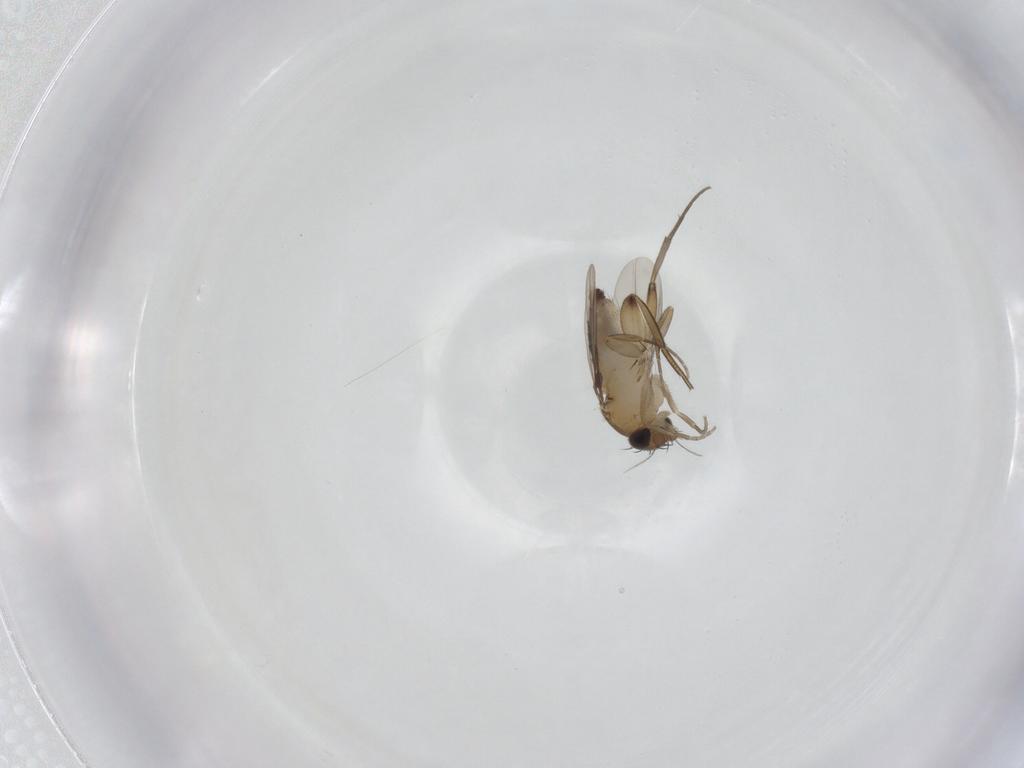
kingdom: Animalia
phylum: Arthropoda
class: Insecta
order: Diptera
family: Phoridae
